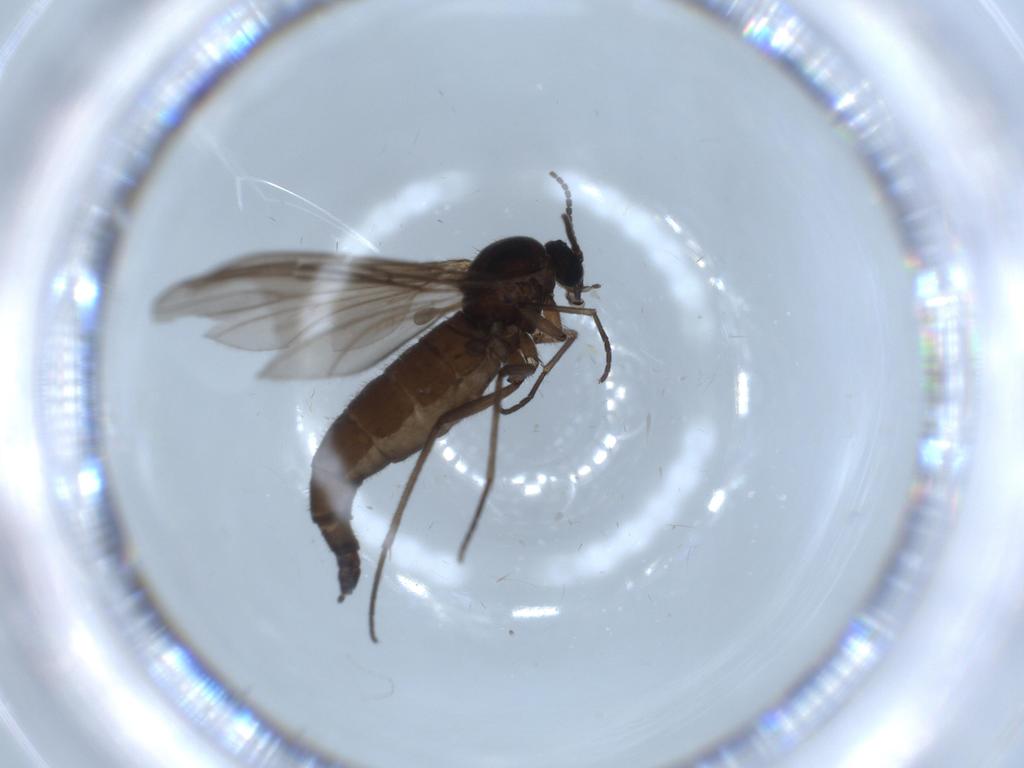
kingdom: Animalia
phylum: Arthropoda
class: Insecta
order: Diptera
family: Sciaridae
